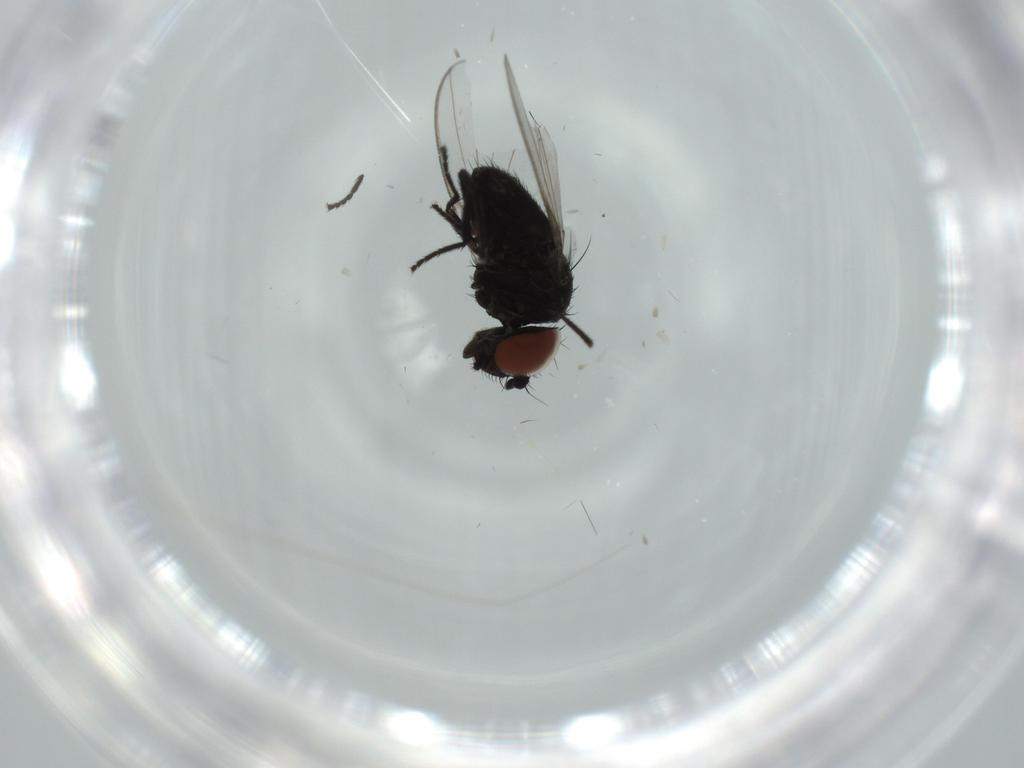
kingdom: Animalia
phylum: Arthropoda
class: Insecta
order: Diptera
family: Milichiidae
